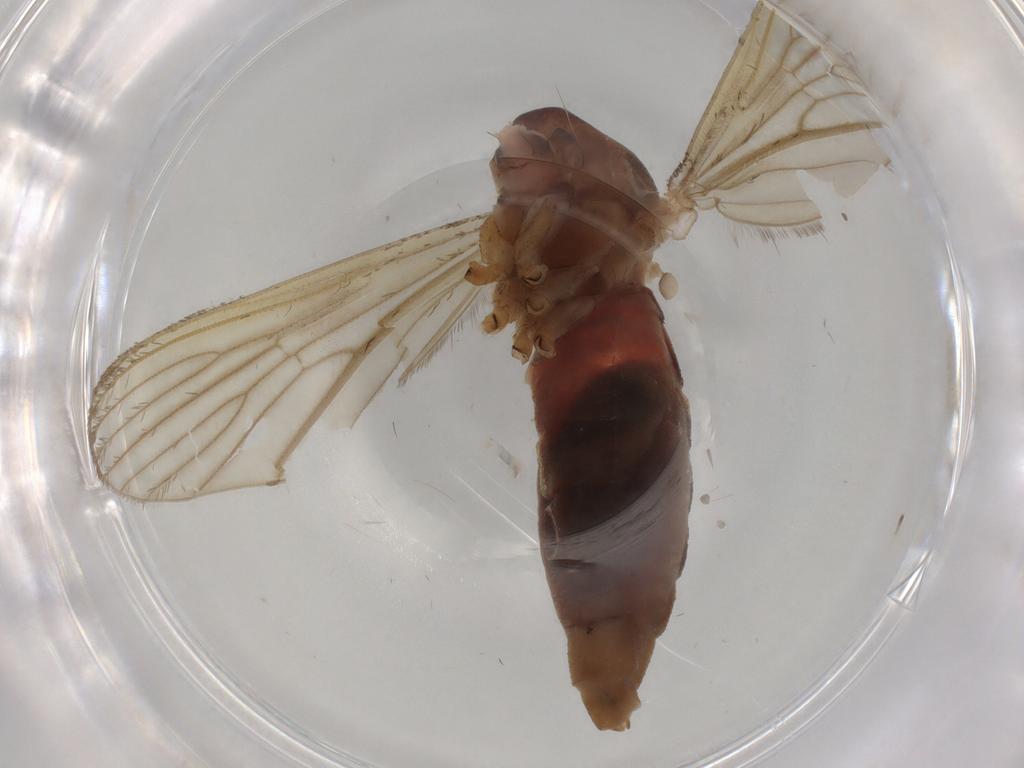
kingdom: Animalia
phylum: Arthropoda
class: Insecta
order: Diptera
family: Culicidae
